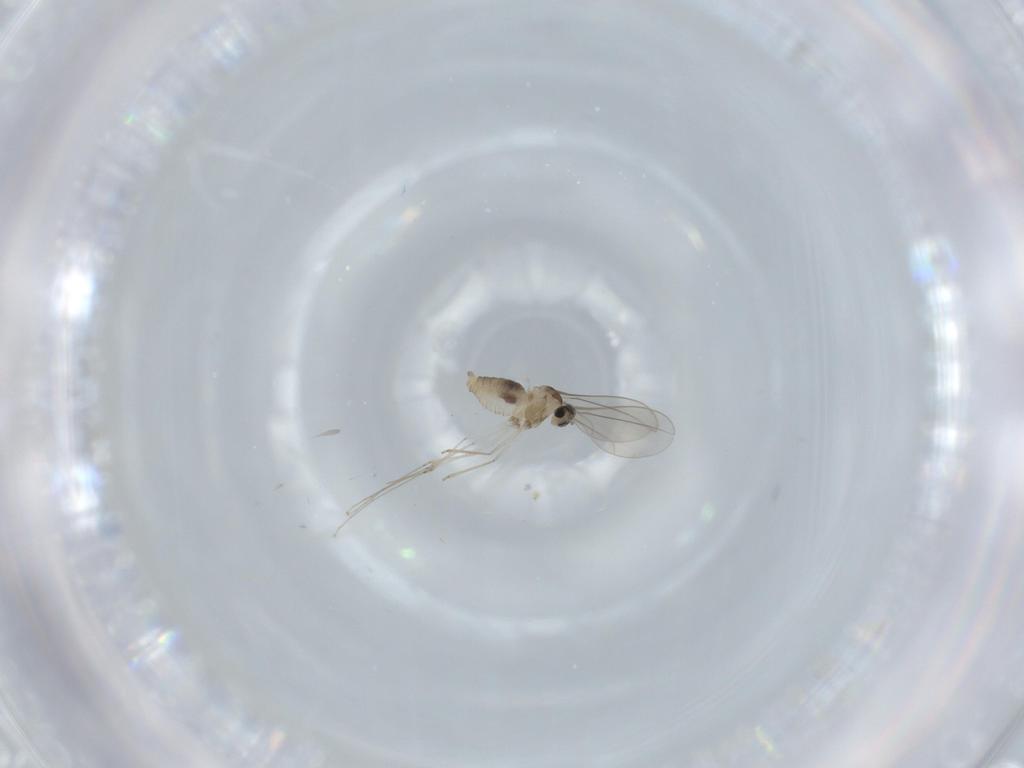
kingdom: Animalia
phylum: Arthropoda
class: Insecta
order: Diptera
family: Cecidomyiidae
